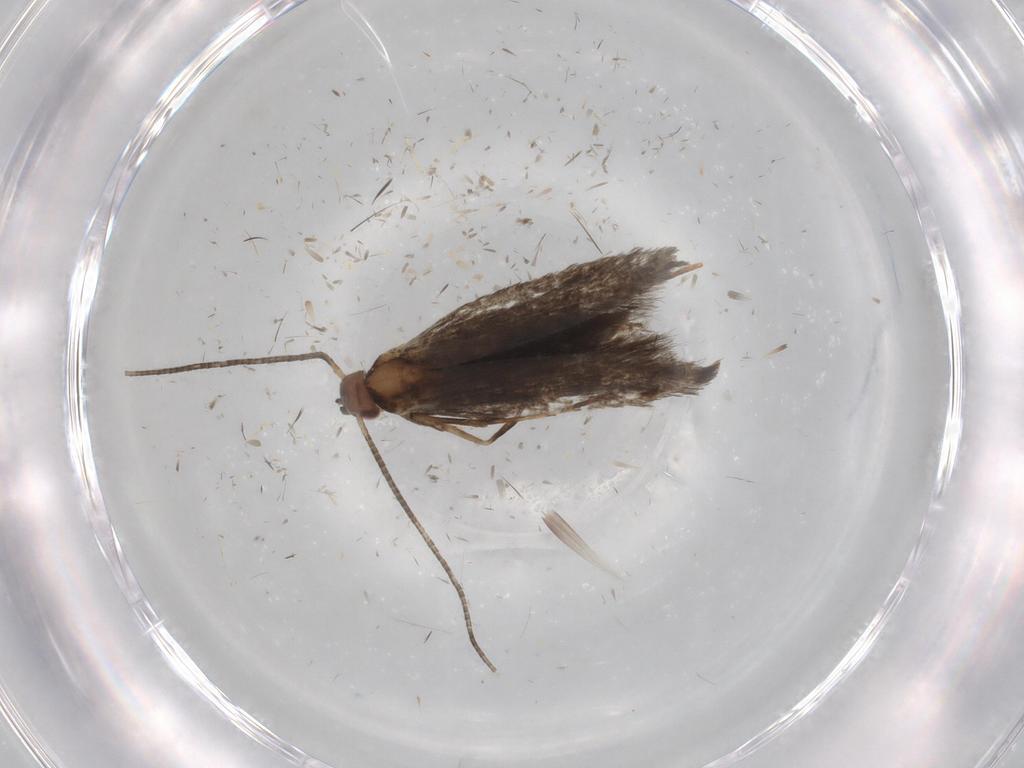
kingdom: Animalia
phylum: Arthropoda
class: Insecta
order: Lepidoptera
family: Gracillariidae
